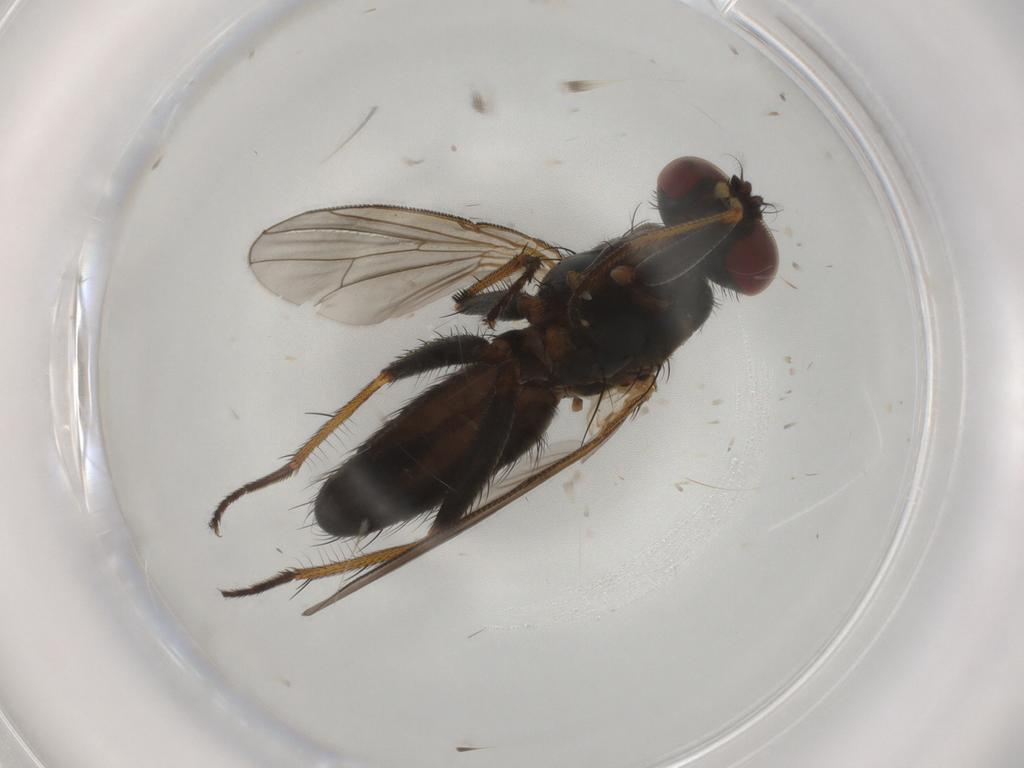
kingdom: Animalia
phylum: Arthropoda
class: Insecta
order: Diptera
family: Muscidae
